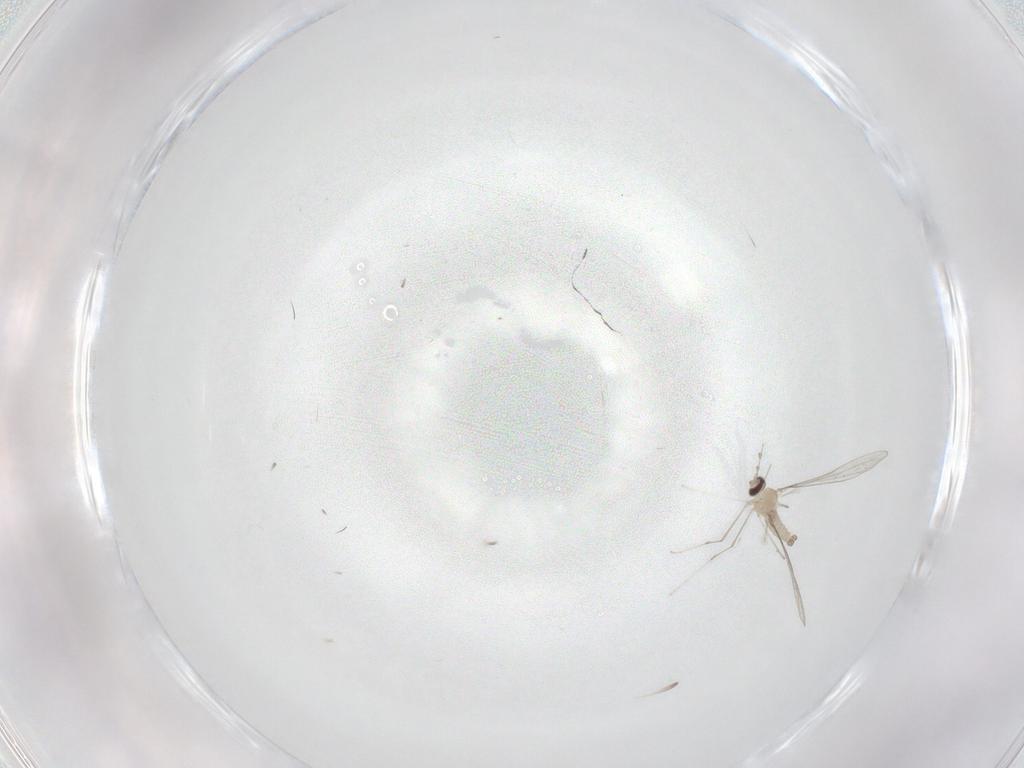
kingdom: Animalia
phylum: Arthropoda
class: Insecta
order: Diptera
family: Cecidomyiidae
